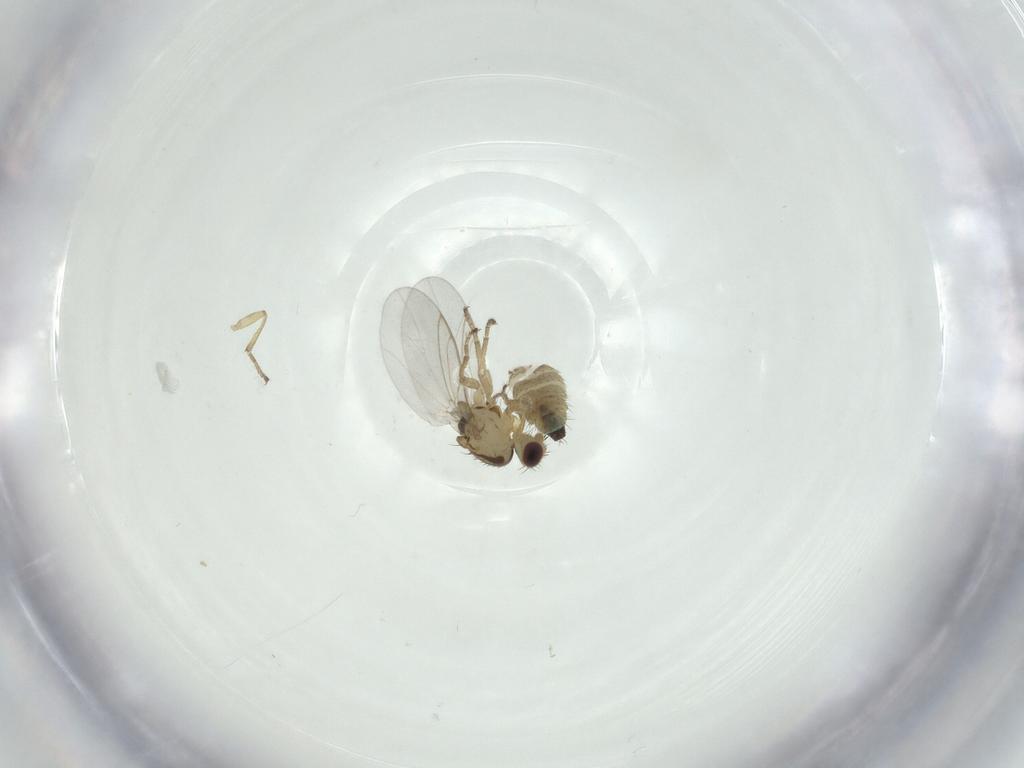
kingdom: Animalia
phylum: Arthropoda
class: Insecta
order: Diptera
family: Agromyzidae
